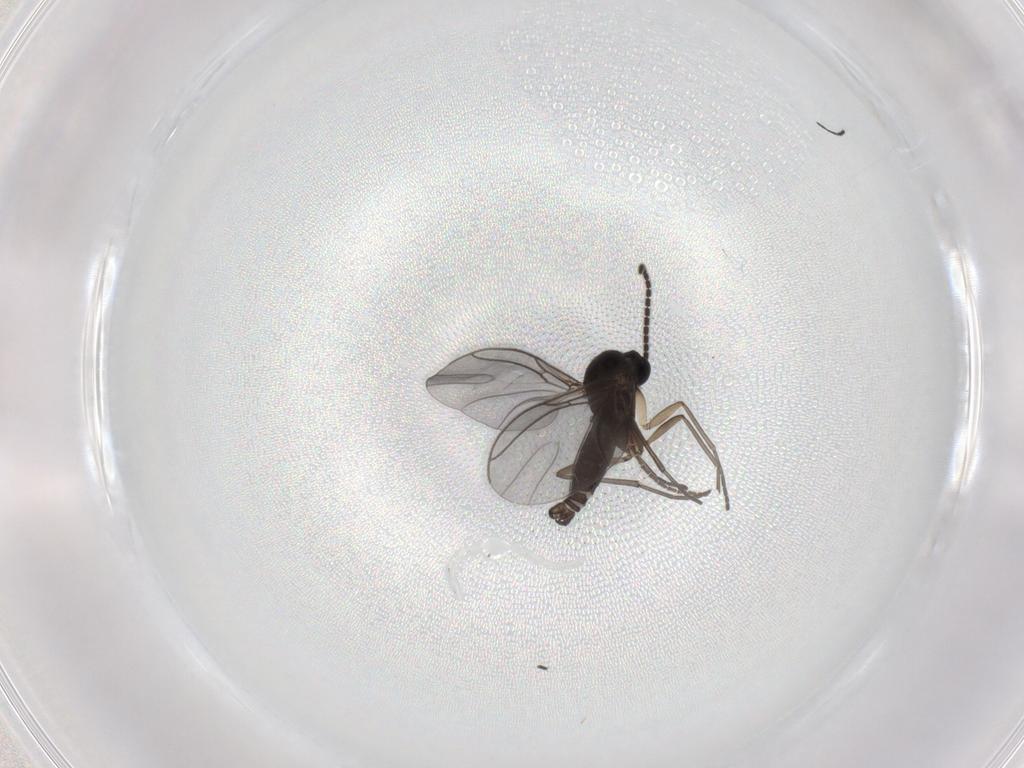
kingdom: Animalia
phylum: Arthropoda
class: Insecta
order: Diptera
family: Sciaridae
